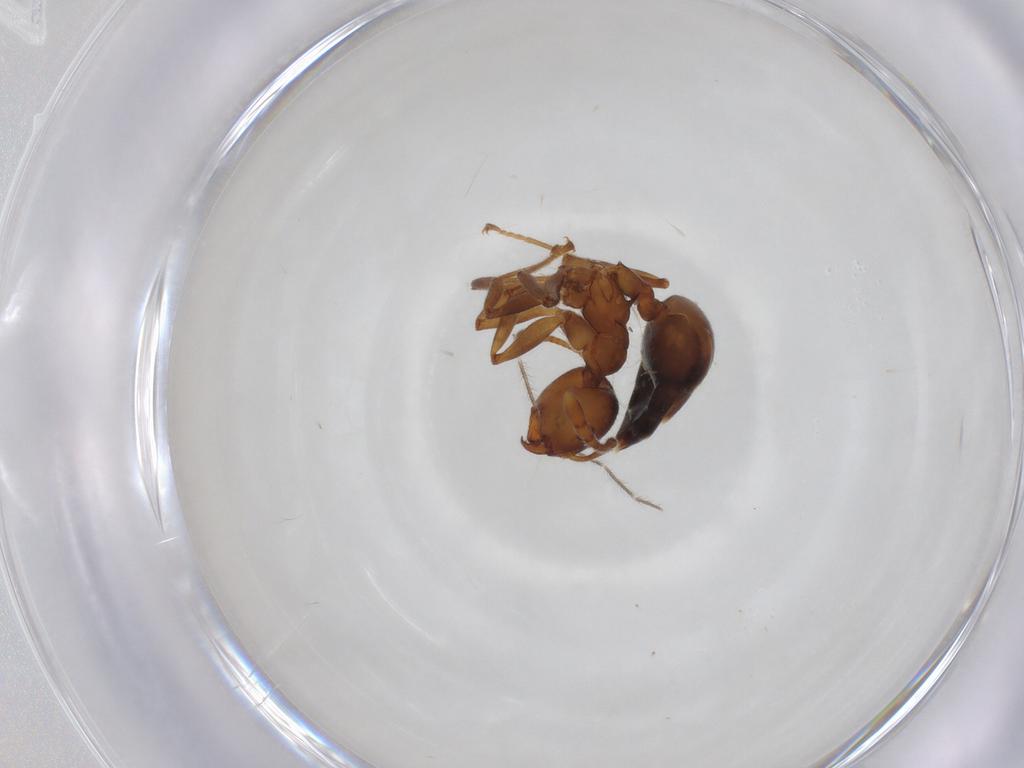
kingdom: Animalia
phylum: Arthropoda
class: Insecta
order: Hymenoptera
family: Formicidae
